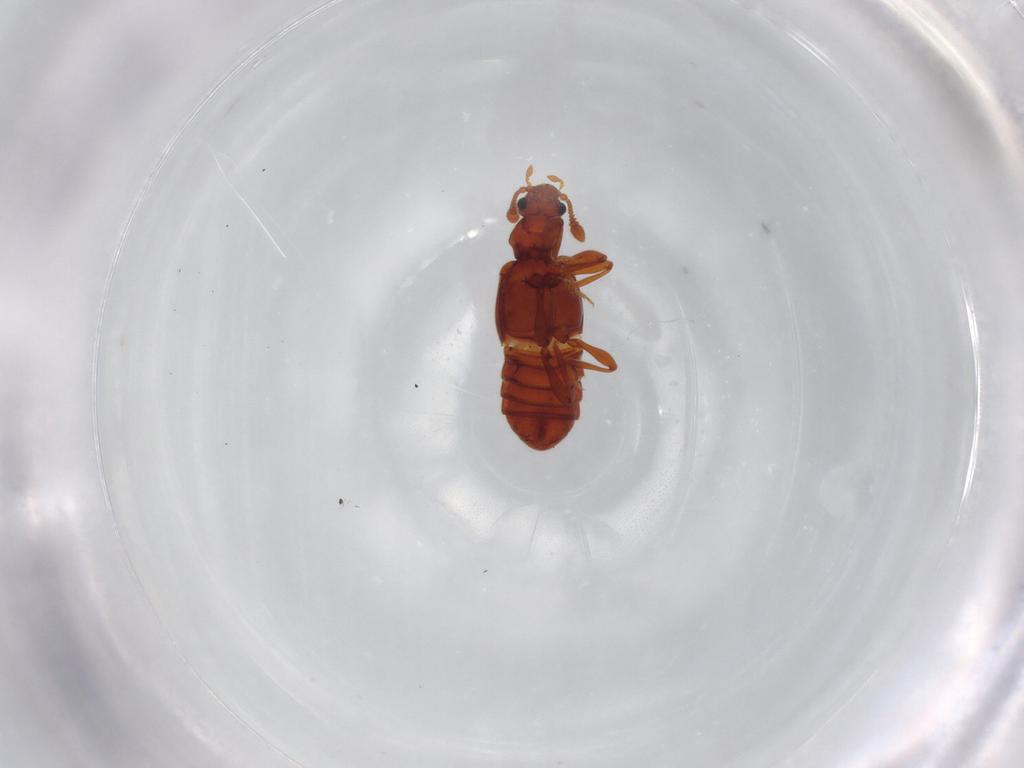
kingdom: Animalia
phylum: Arthropoda
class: Insecta
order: Coleoptera
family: Staphylinidae
